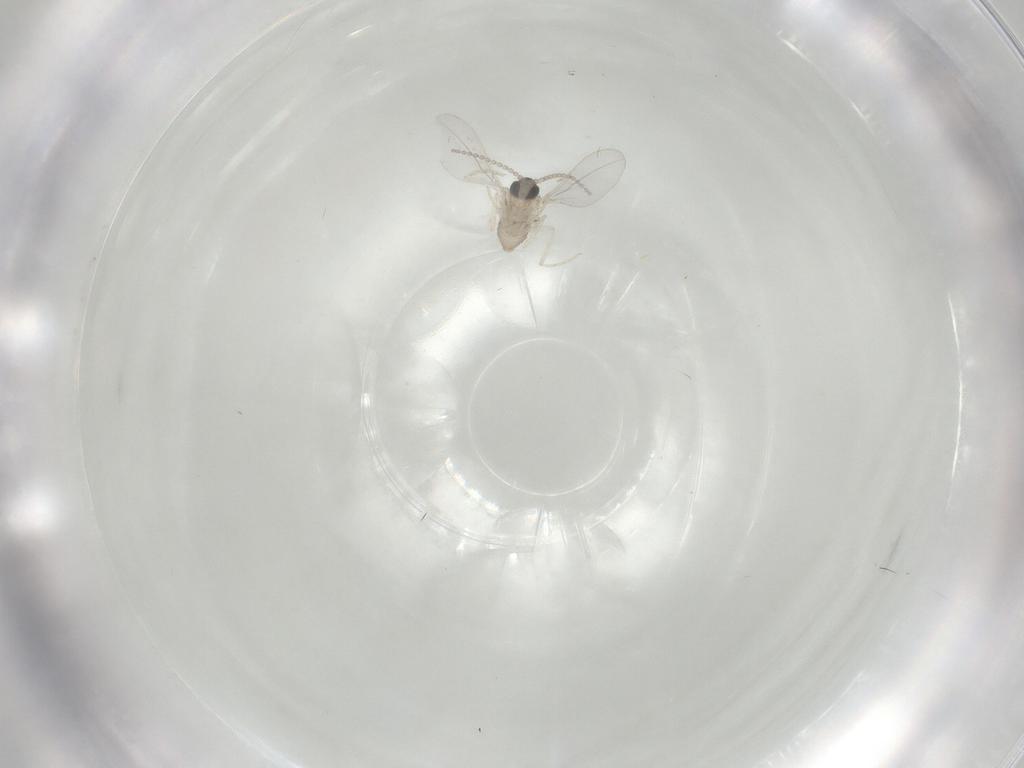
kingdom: Animalia
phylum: Arthropoda
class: Insecta
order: Diptera
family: Cecidomyiidae
